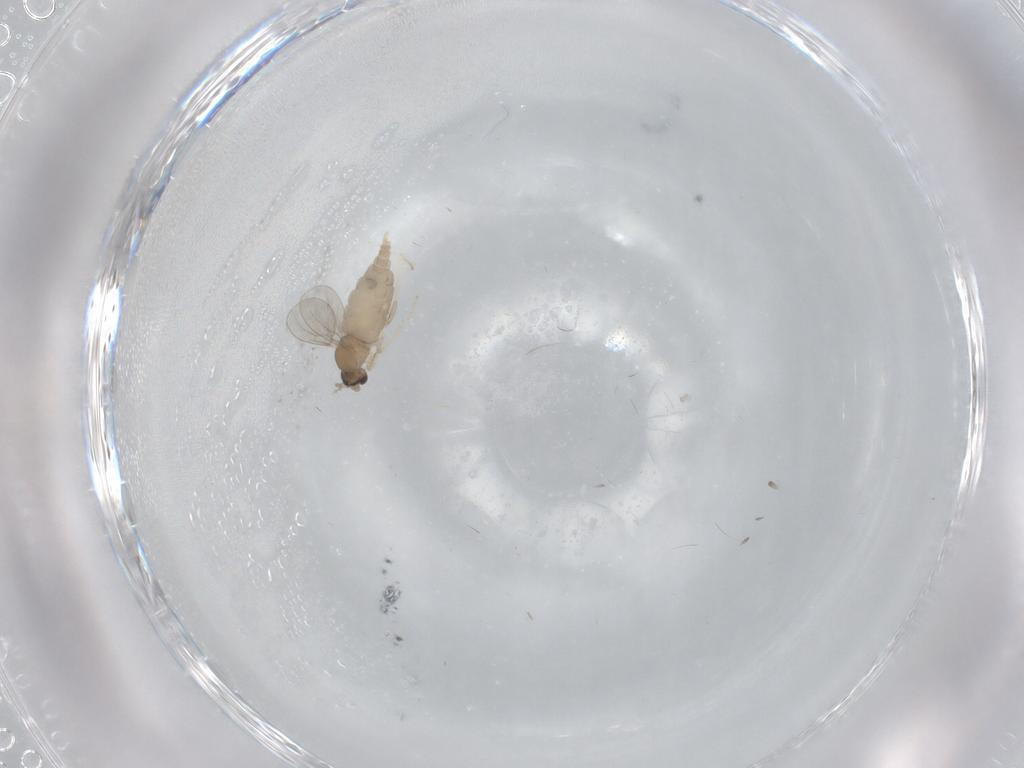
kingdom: Animalia
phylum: Arthropoda
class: Insecta
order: Diptera
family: Cecidomyiidae
